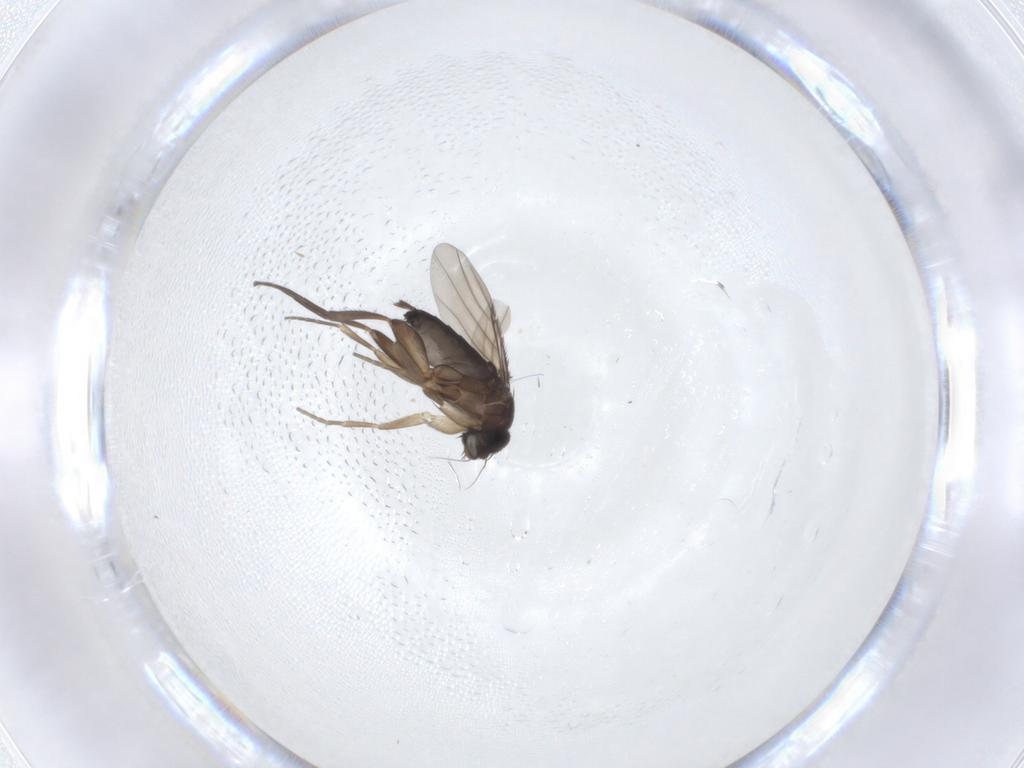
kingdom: Animalia
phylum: Arthropoda
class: Insecta
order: Diptera
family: Phoridae
